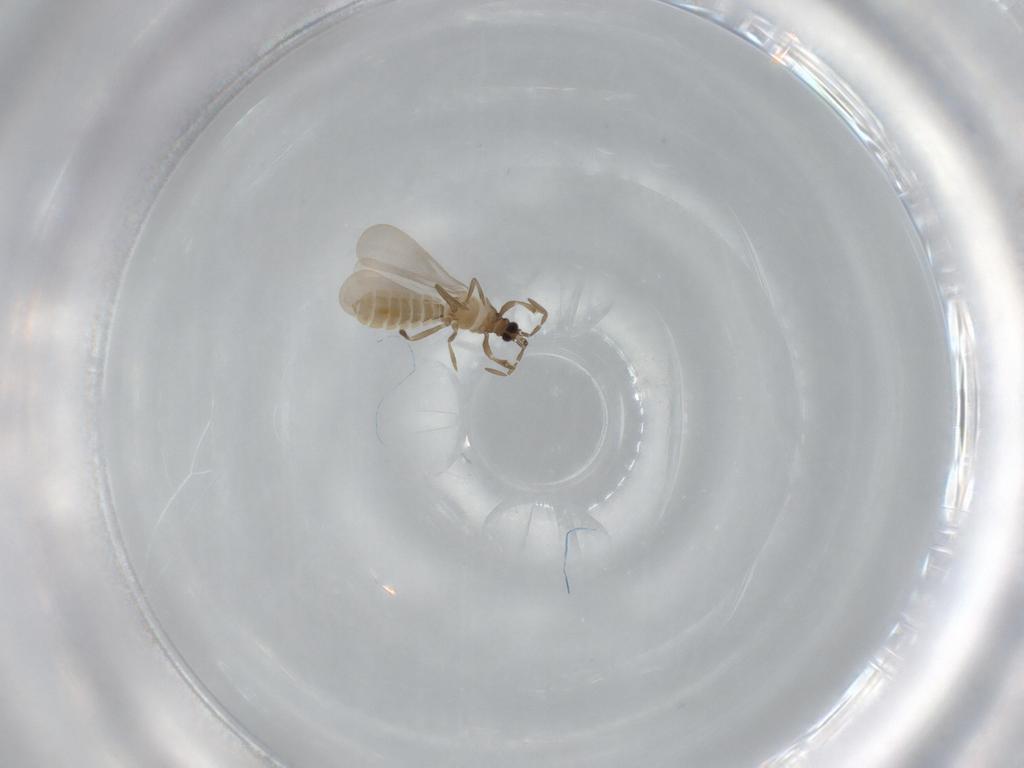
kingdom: Animalia
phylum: Arthropoda
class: Insecta
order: Hemiptera
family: Enicocephalidae
